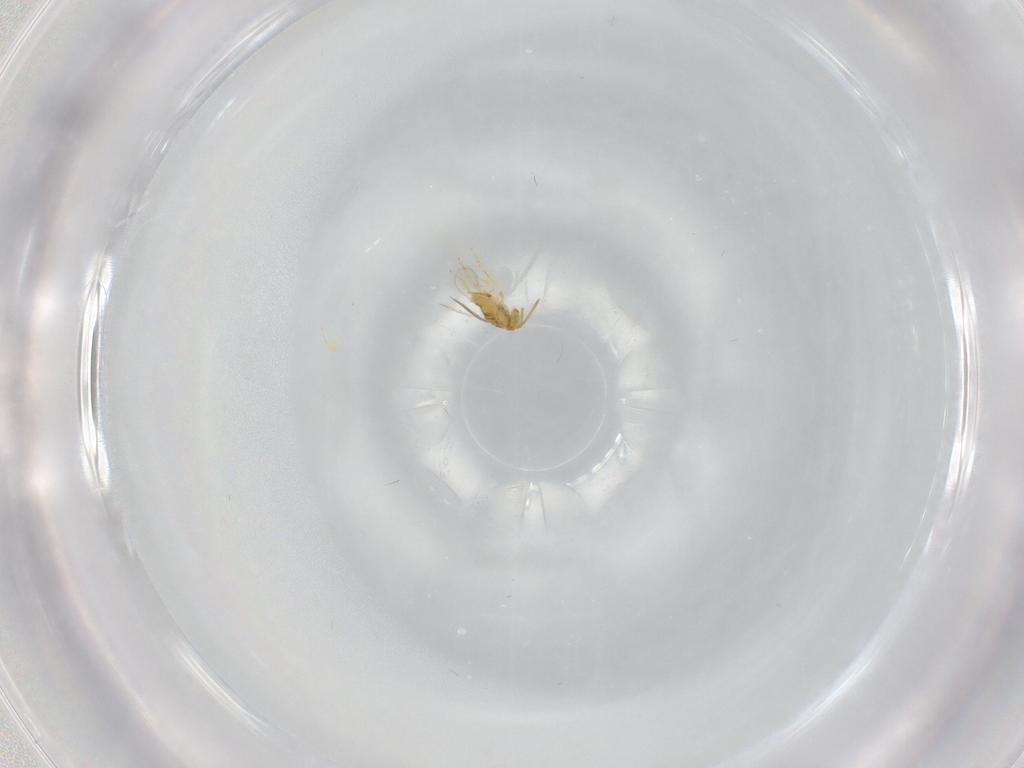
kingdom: Animalia
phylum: Arthropoda
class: Insecta
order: Hymenoptera
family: Aphelinidae
